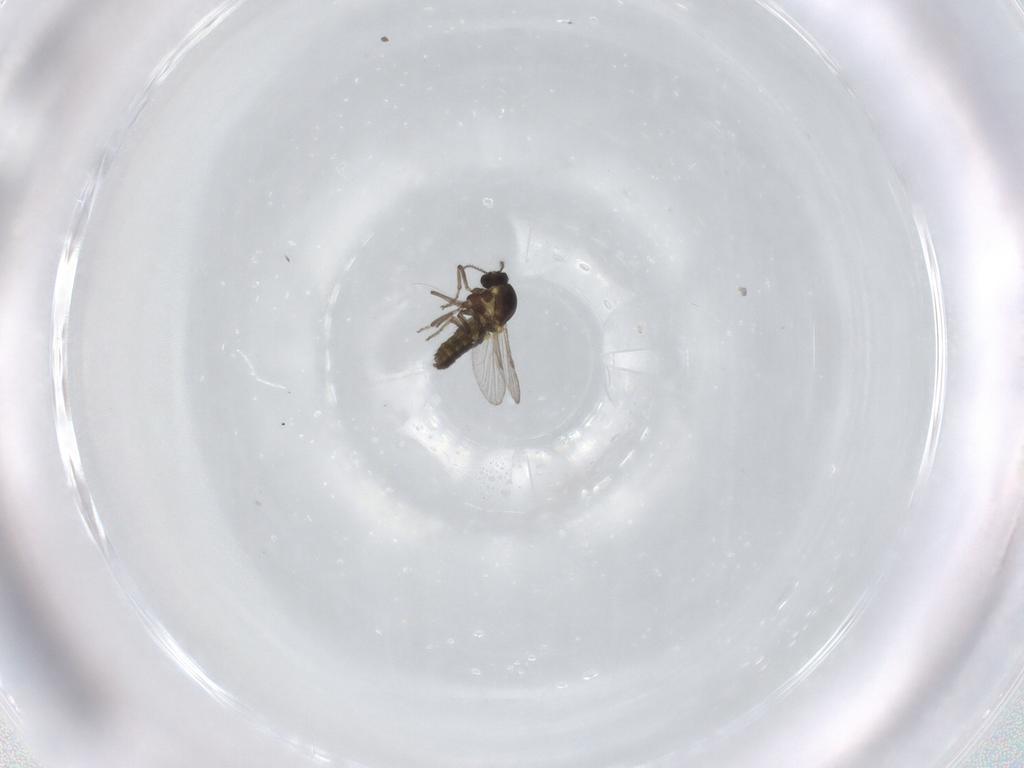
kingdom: Animalia
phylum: Arthropoda
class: Insecta
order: Diptera
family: Ceratopogonidae
